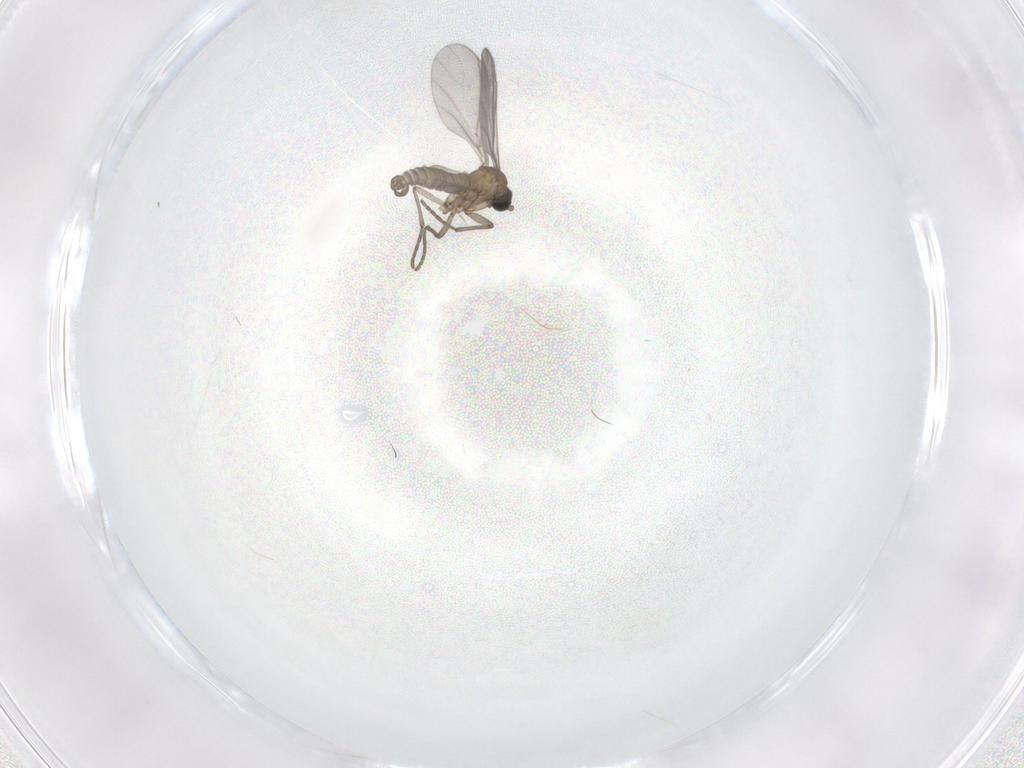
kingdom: Animalia
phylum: Arthropoda
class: Insecta
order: Diptera
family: Sciaridae
